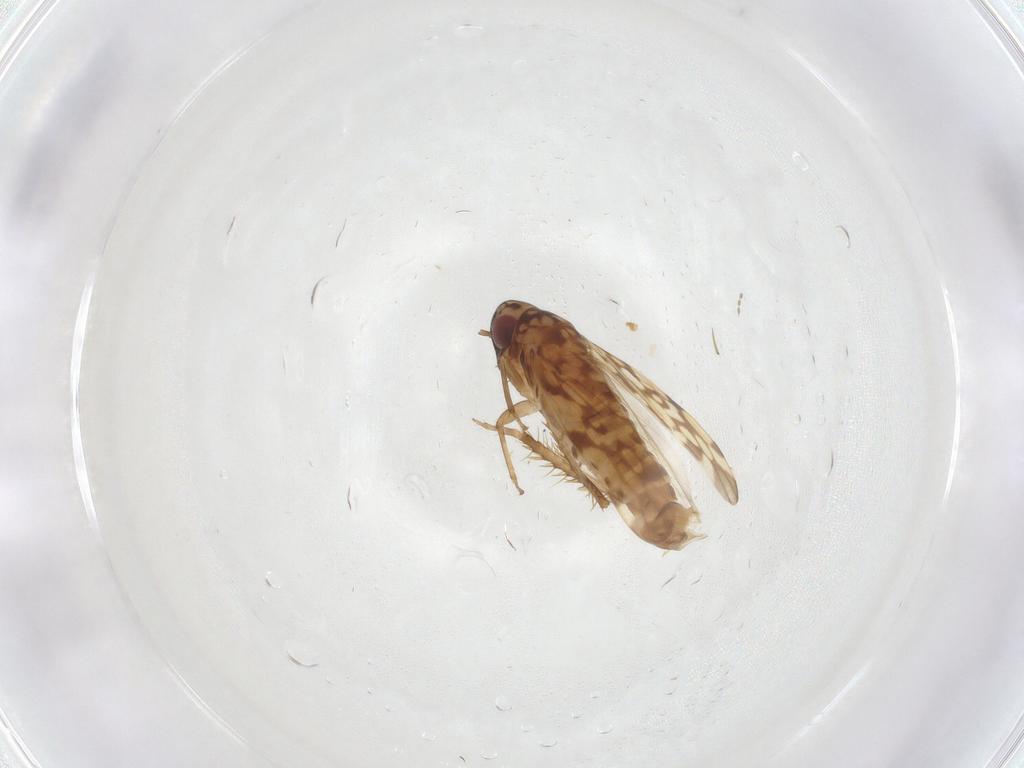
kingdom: Animalia
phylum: Arthropoda
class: Insecta
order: Hemiptera
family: Cicadellidae
